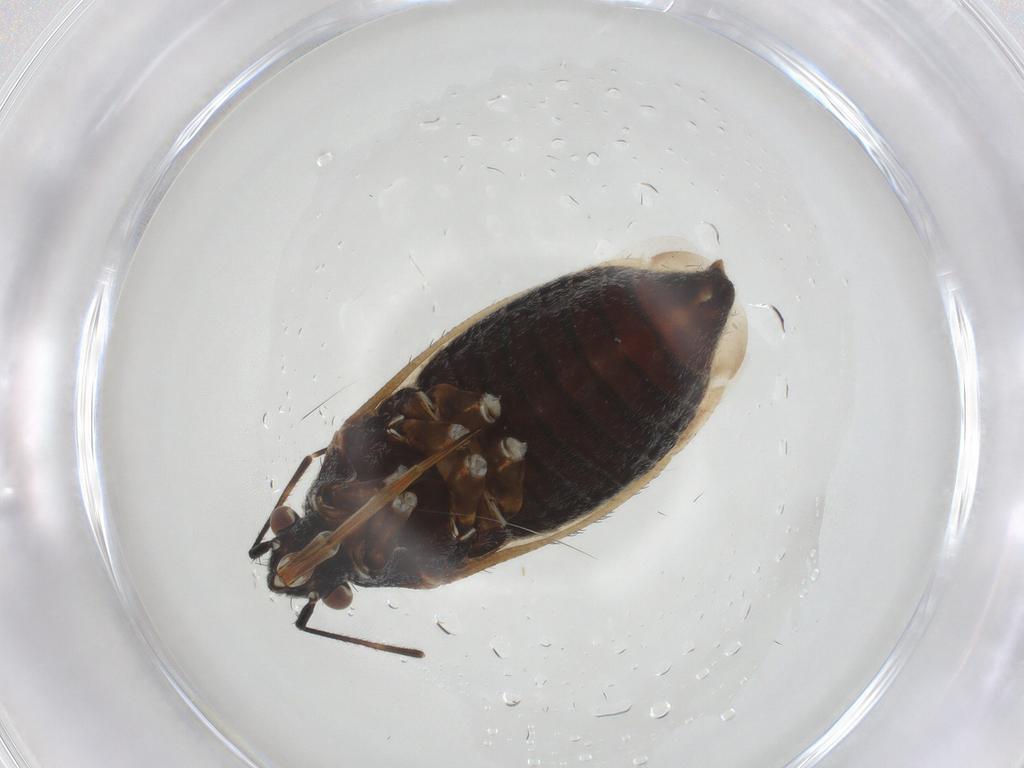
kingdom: Animalia
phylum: Arthropoda
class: Insecta
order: Hemiptera
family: Miridae
